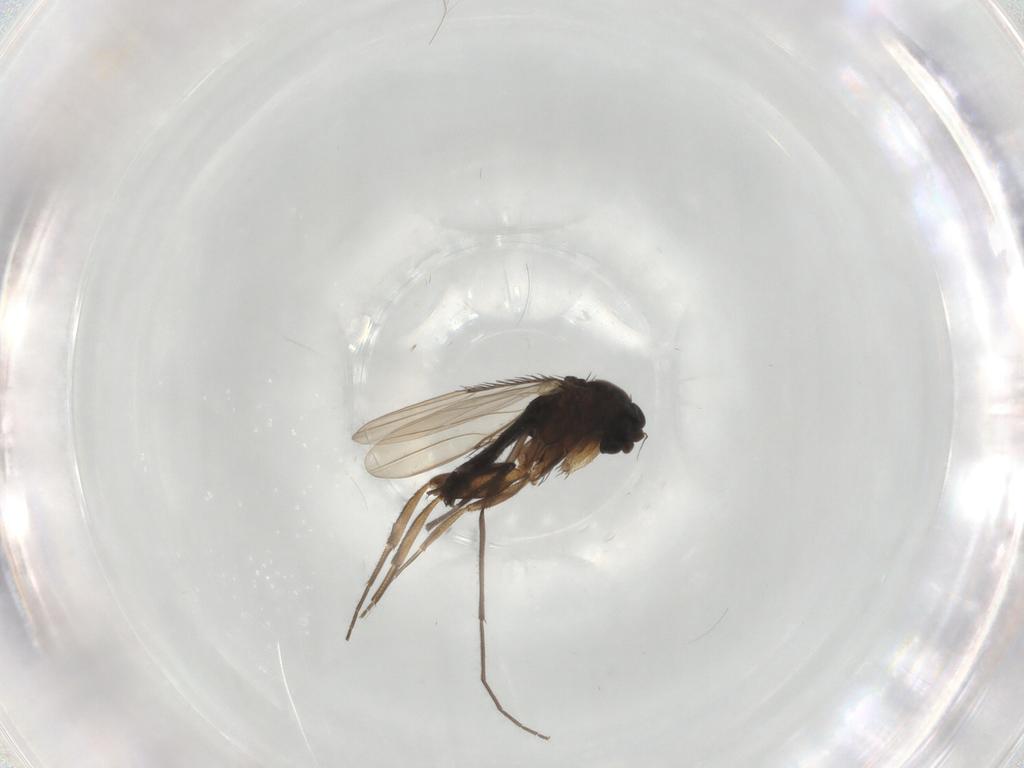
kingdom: Animalia
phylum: Arthropoda
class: Insecta
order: Diptera
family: Phoridae
